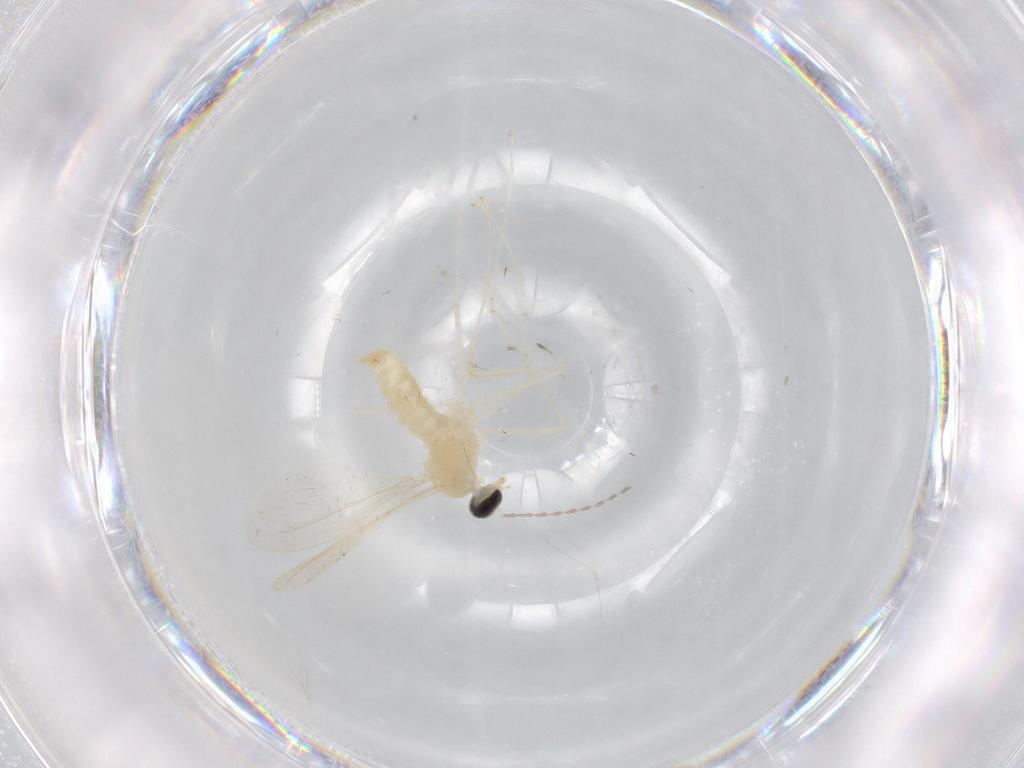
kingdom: Animalia
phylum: Arthropoda
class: Insecta
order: Diptera
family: Cecidomyiidae
